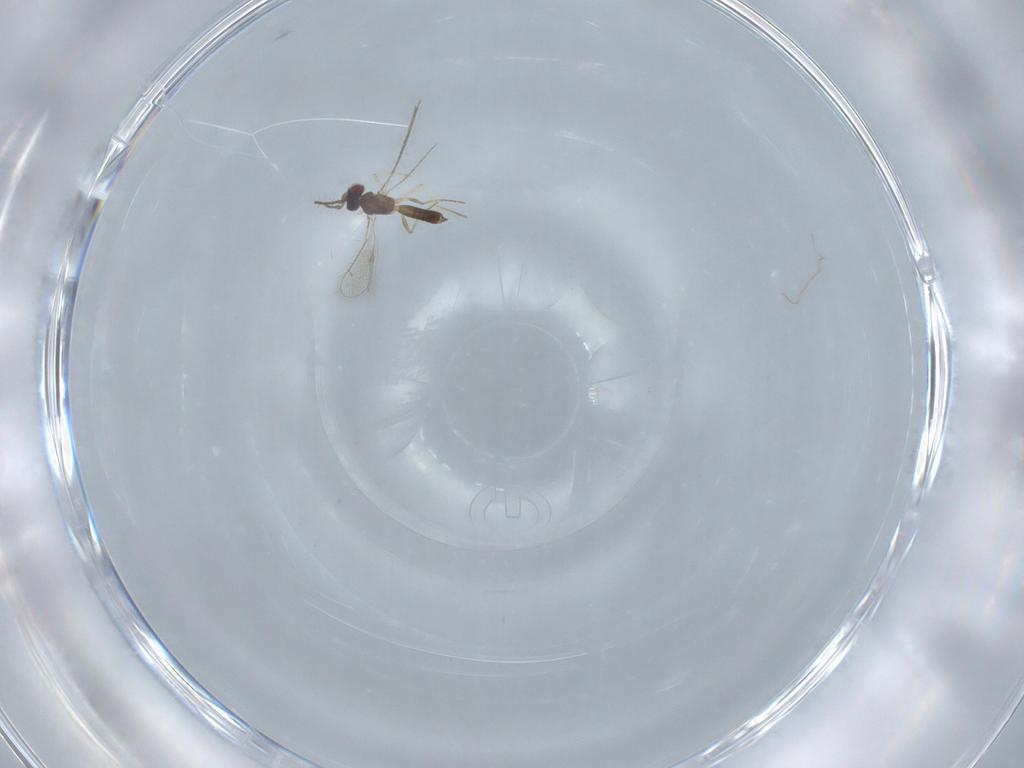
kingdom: Animalia
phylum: Arthropoda
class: Insecta
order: Hymenoptera
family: Eulophidae
